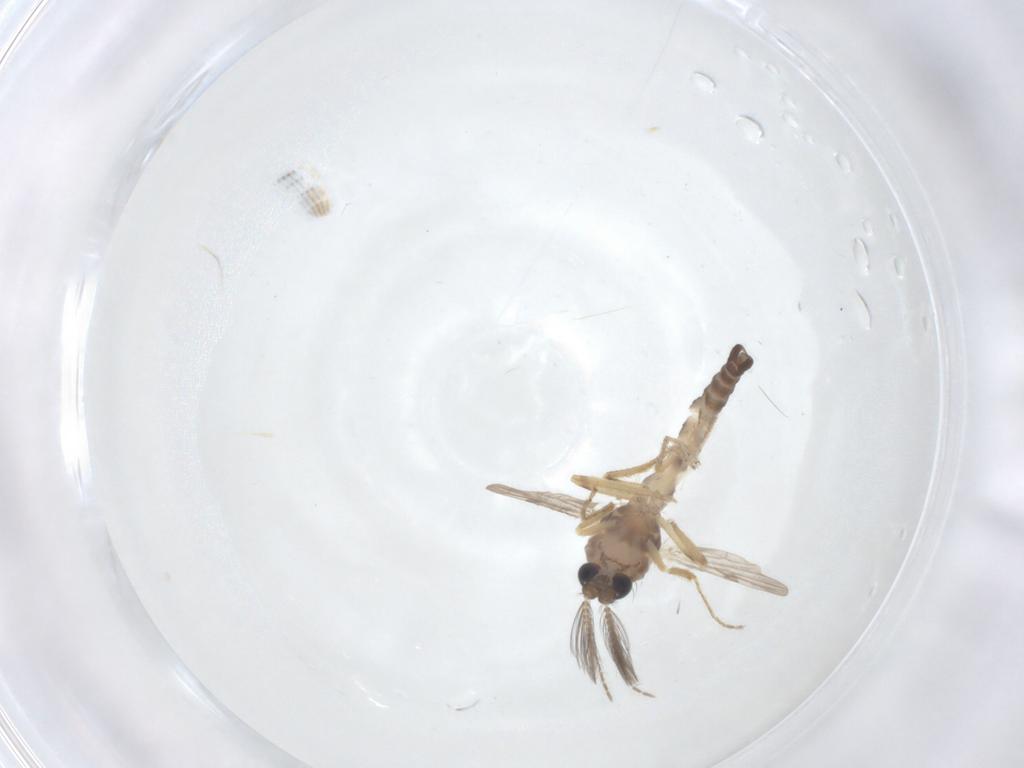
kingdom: Animalia
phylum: Arthropoda
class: Insecta
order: Diptera
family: Ceratopogonidae
